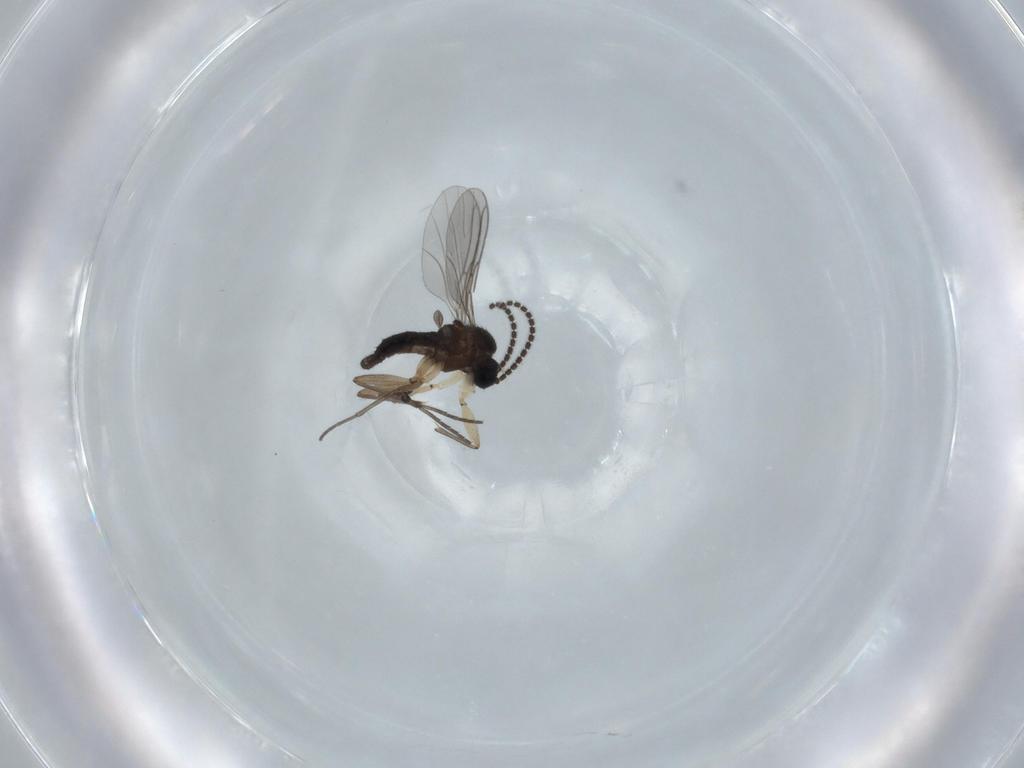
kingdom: Animalia
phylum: Arthropoda
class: Insecta
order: Diptera
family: Sciaridae
